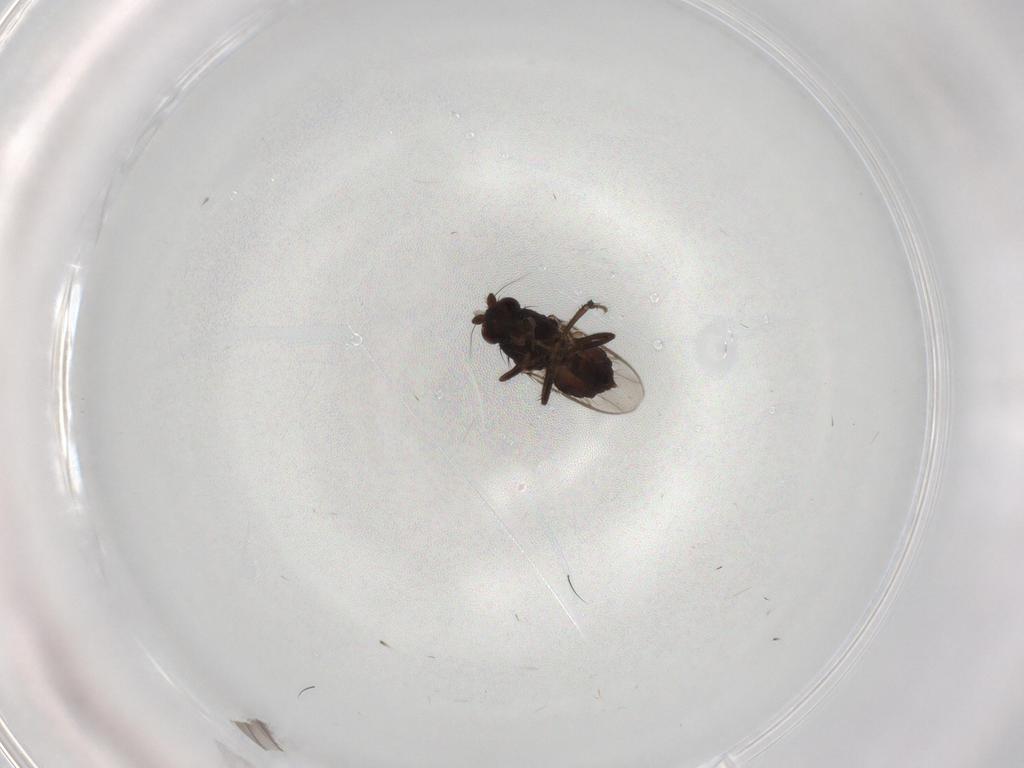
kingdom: Animalia
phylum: Arthropoda
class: Insecta
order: Diptera
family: Sphaeroceridae
